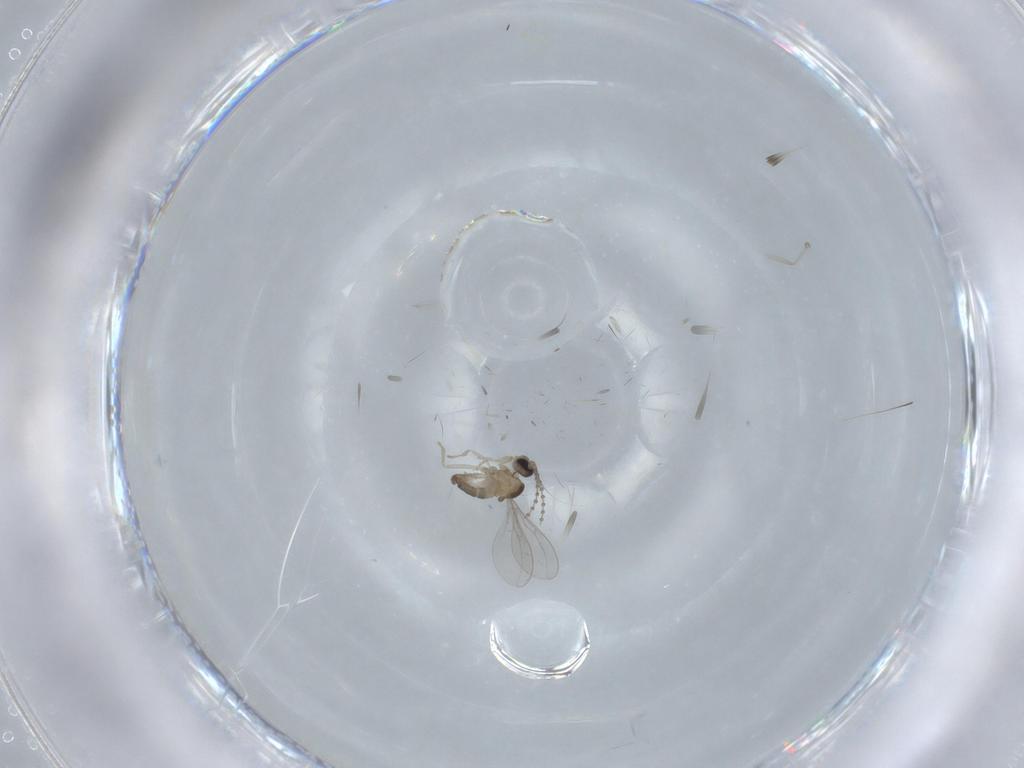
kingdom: Animalia
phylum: Arthropoda
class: Insecta
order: Diptera
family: Cecidomyiidae
